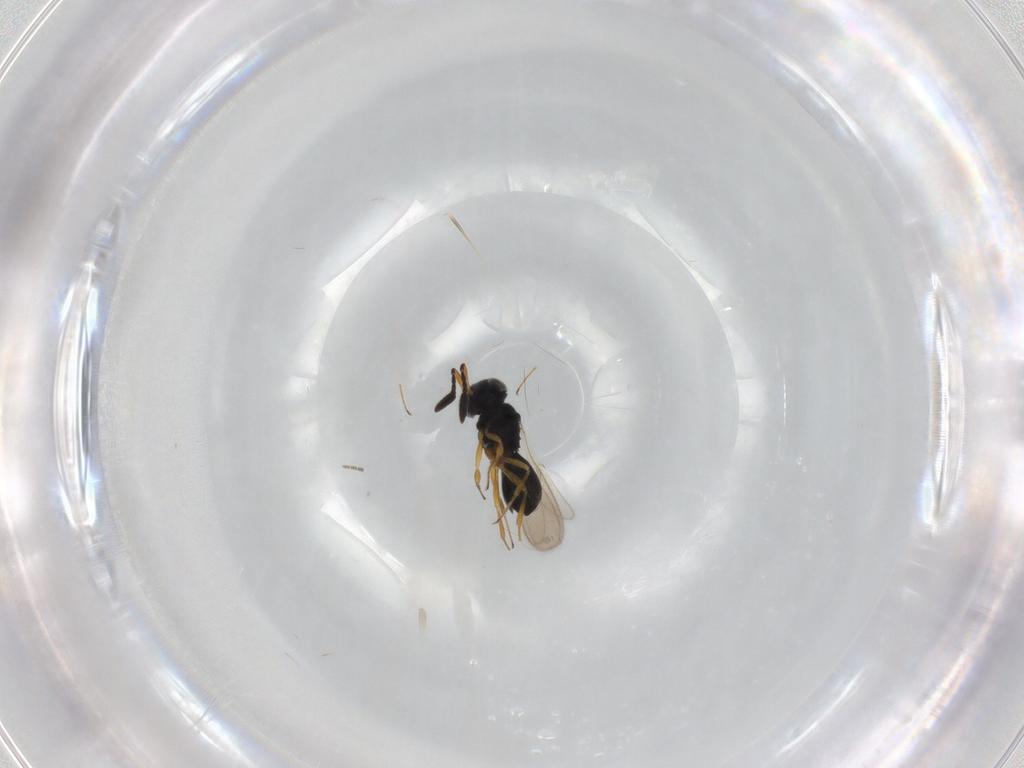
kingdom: Animalia
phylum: Arthropoda
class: Insecta
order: Hymenoptera
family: Scelionidae
